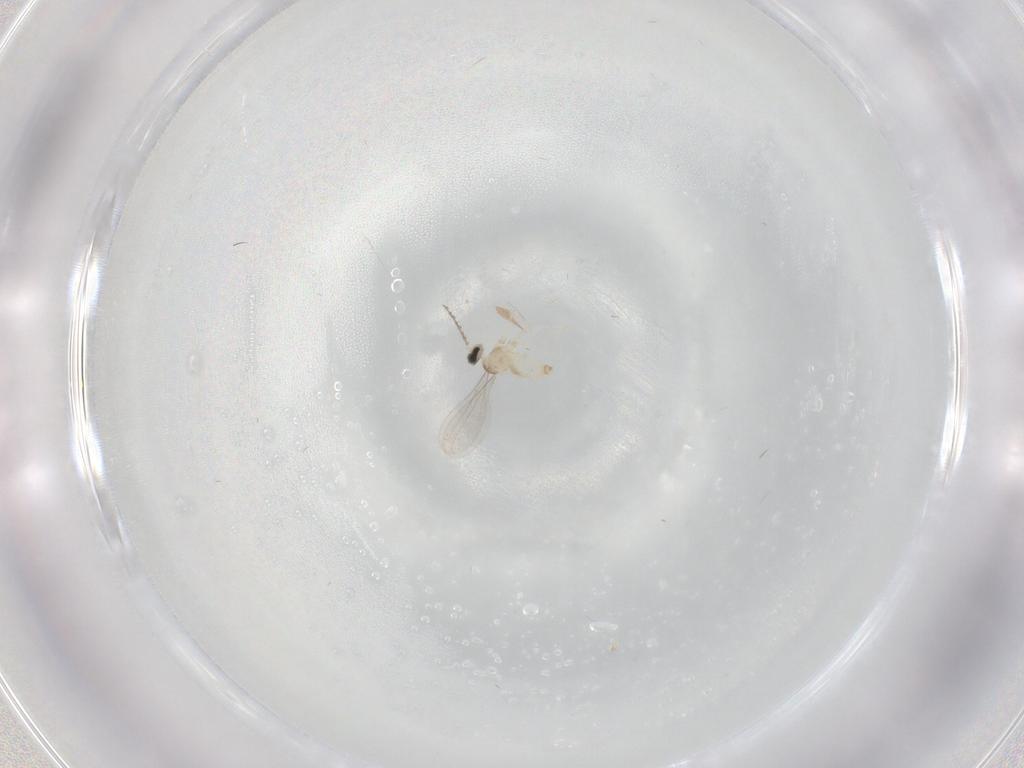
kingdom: Animalia
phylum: Arthropoda
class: Insecta
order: Diptera
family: Cecidomyiidae
